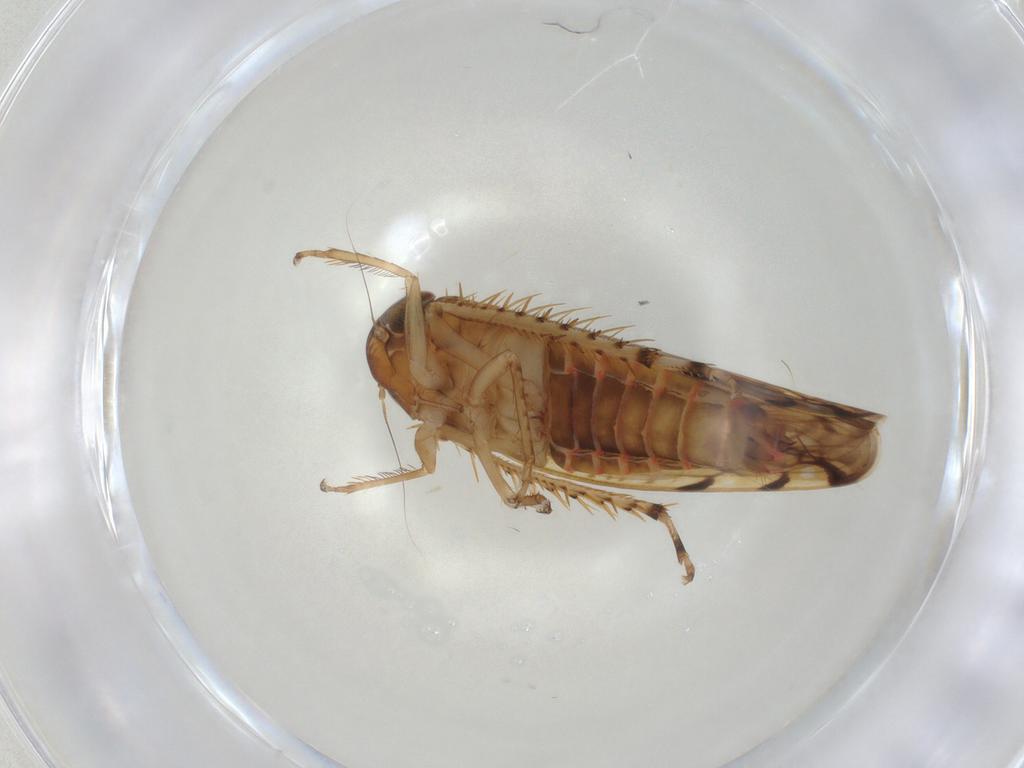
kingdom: Animalia
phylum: Arthropoda
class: Insecta
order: Hemiptera
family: Cicadellidae
